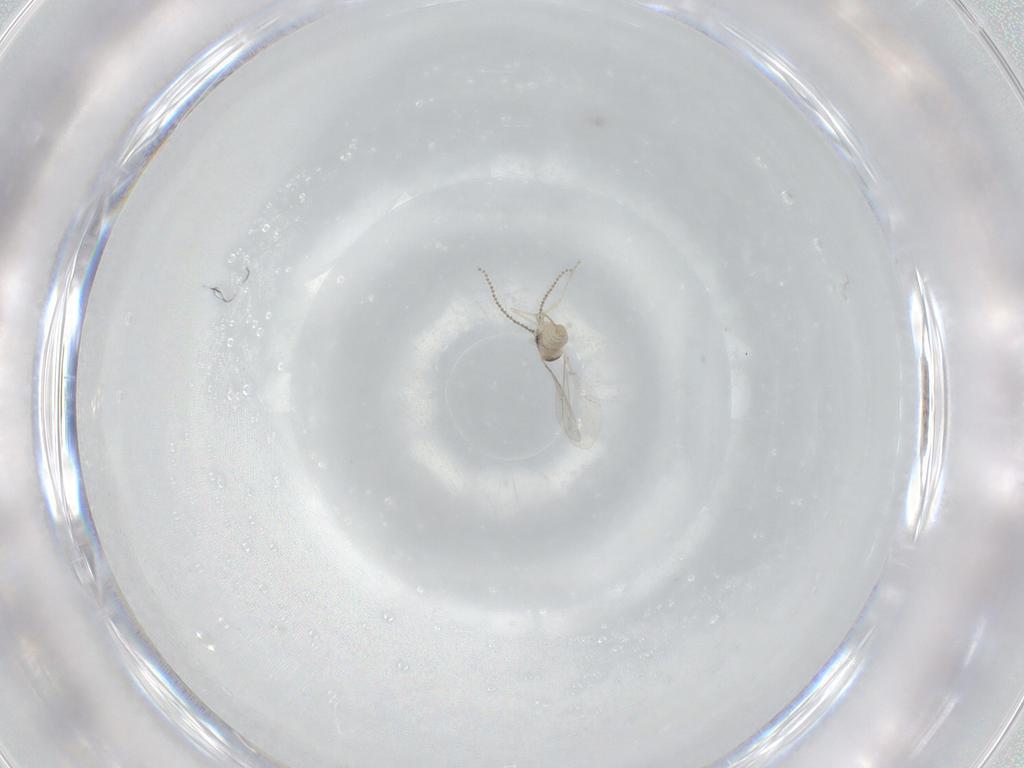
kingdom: Animalia
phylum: Arthropoda
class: Insecta
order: Diptera
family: Cecidomyiidae
